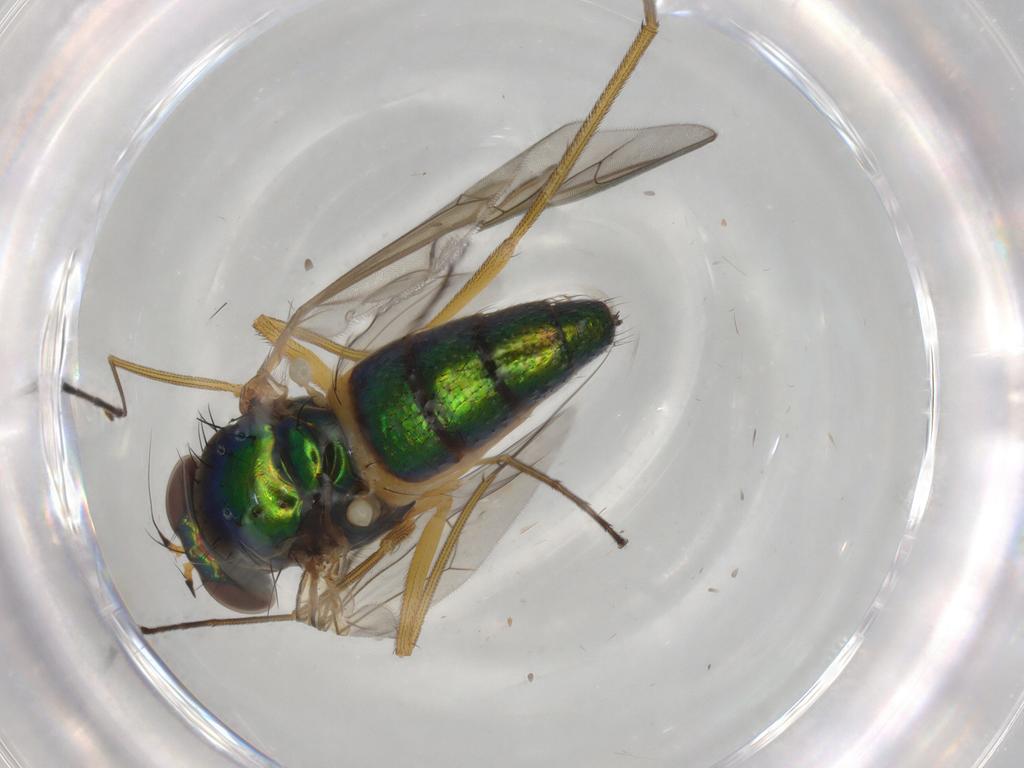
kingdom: Animalia
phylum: Arthropoda
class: Insecta
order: Diptera
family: Dolichopodidae
